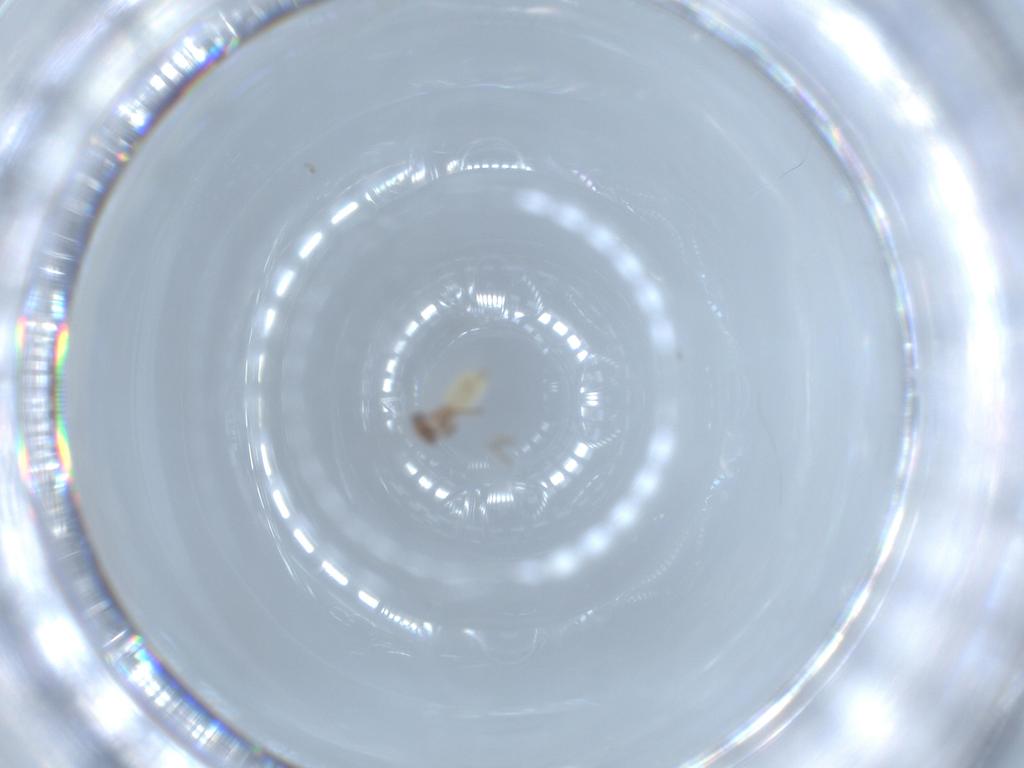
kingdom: Animalia
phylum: Arthropoda
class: Insecta
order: Psocodea
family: Lepidopsocidae
